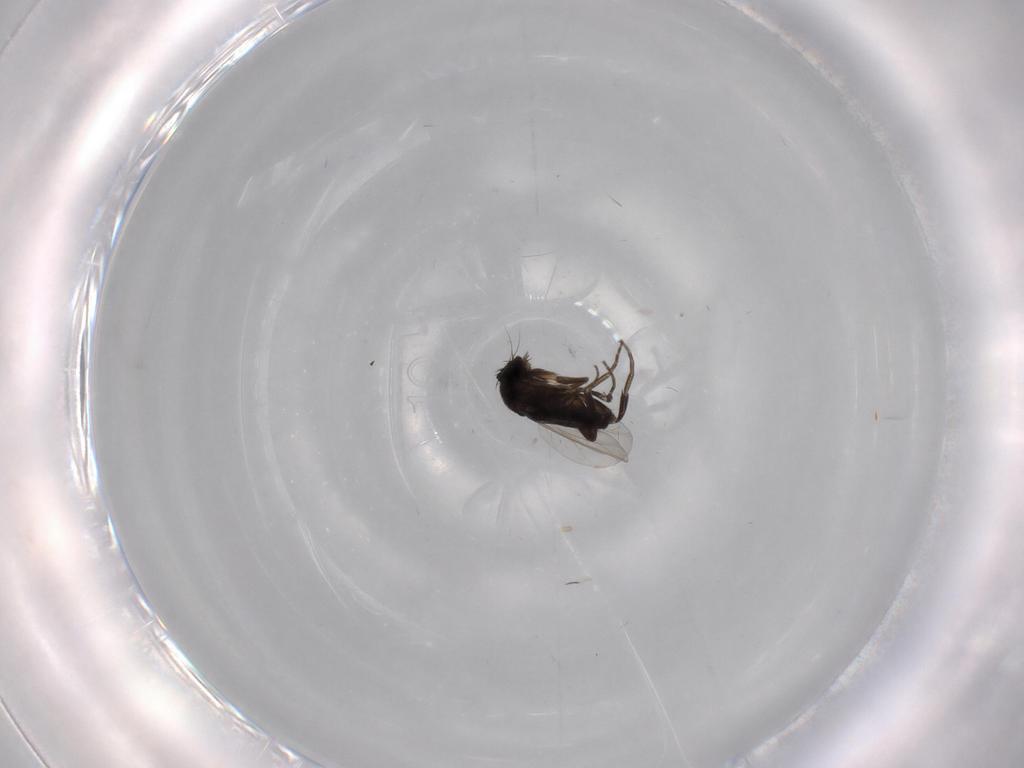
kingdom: Animalia
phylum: Arthropoda
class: Insecta
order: Diptera
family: Phoridae
